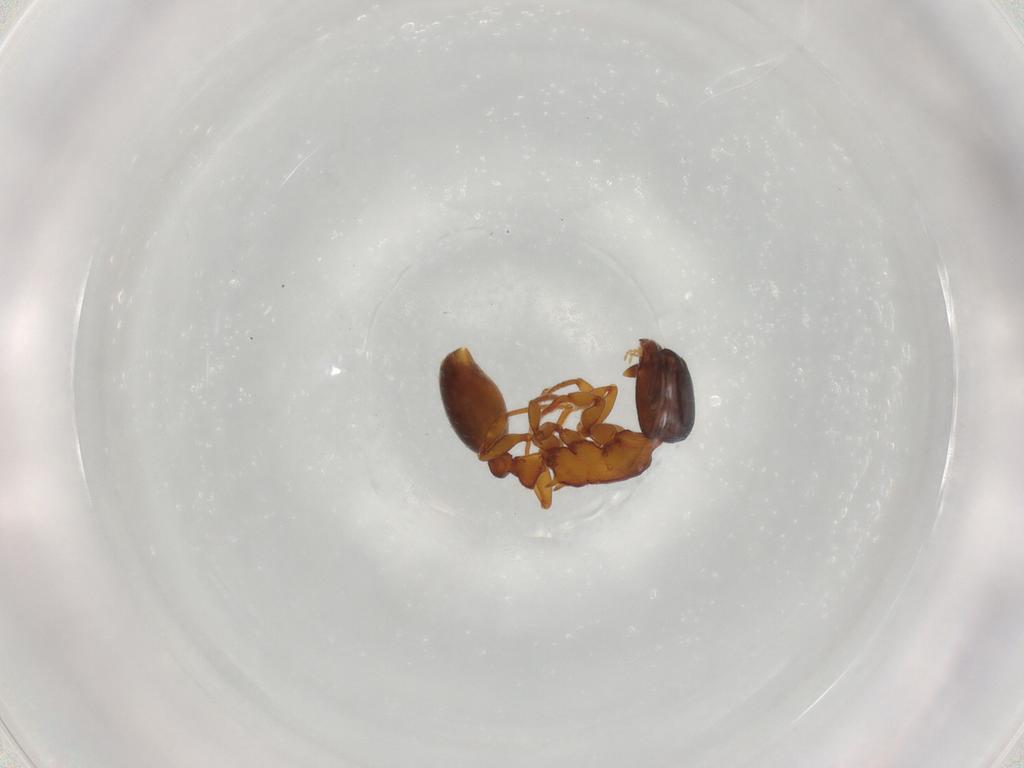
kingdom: Animalia
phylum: Arthropoda
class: Insecta
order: Hymenoptera
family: Formicidae
